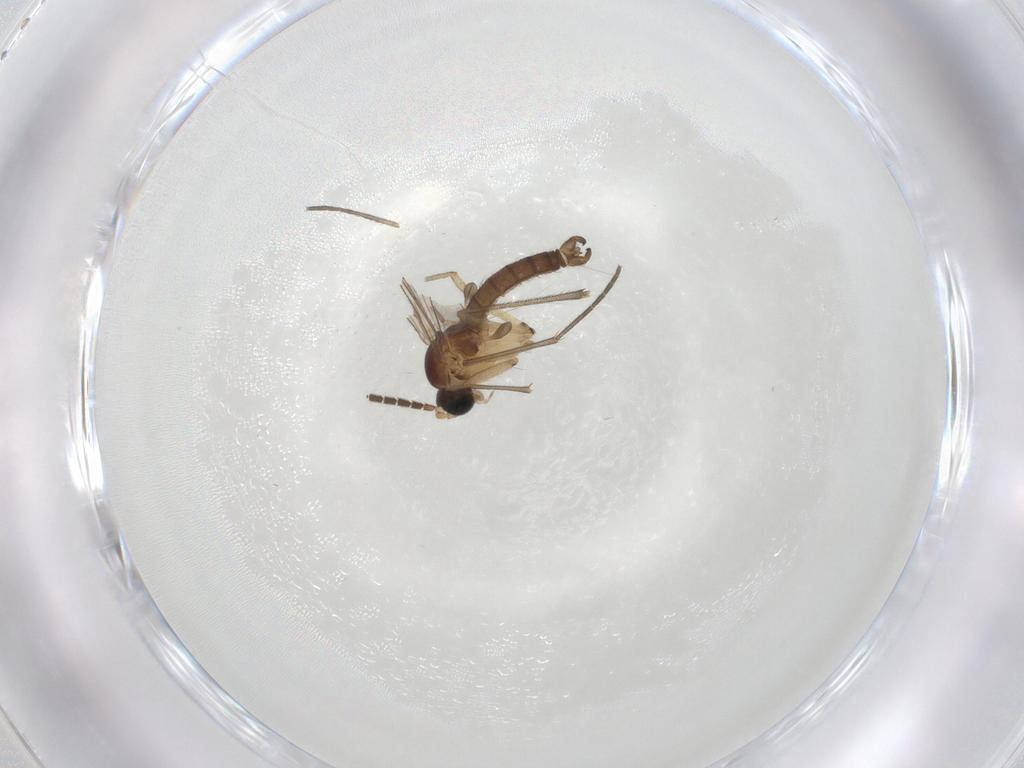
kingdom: Animalia
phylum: Arthropoda
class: Insecta
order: Diptera
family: Sciaridae
